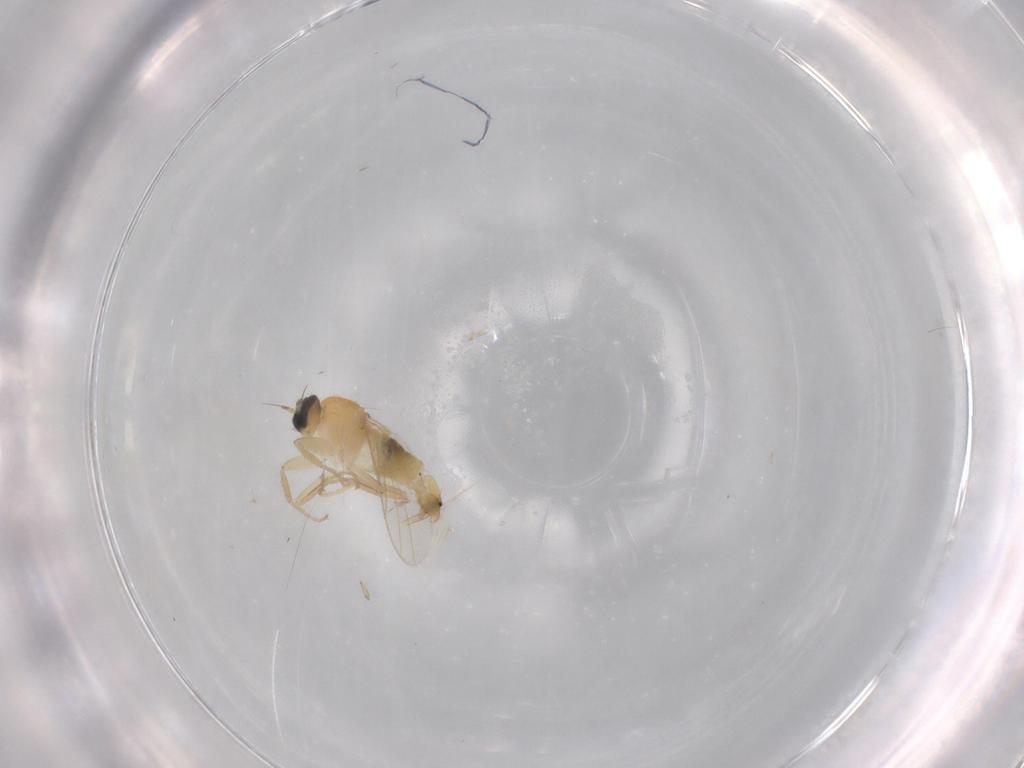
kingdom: Animalia
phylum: Arthropoda
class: Insecta
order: Diptera
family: Hybotidae
